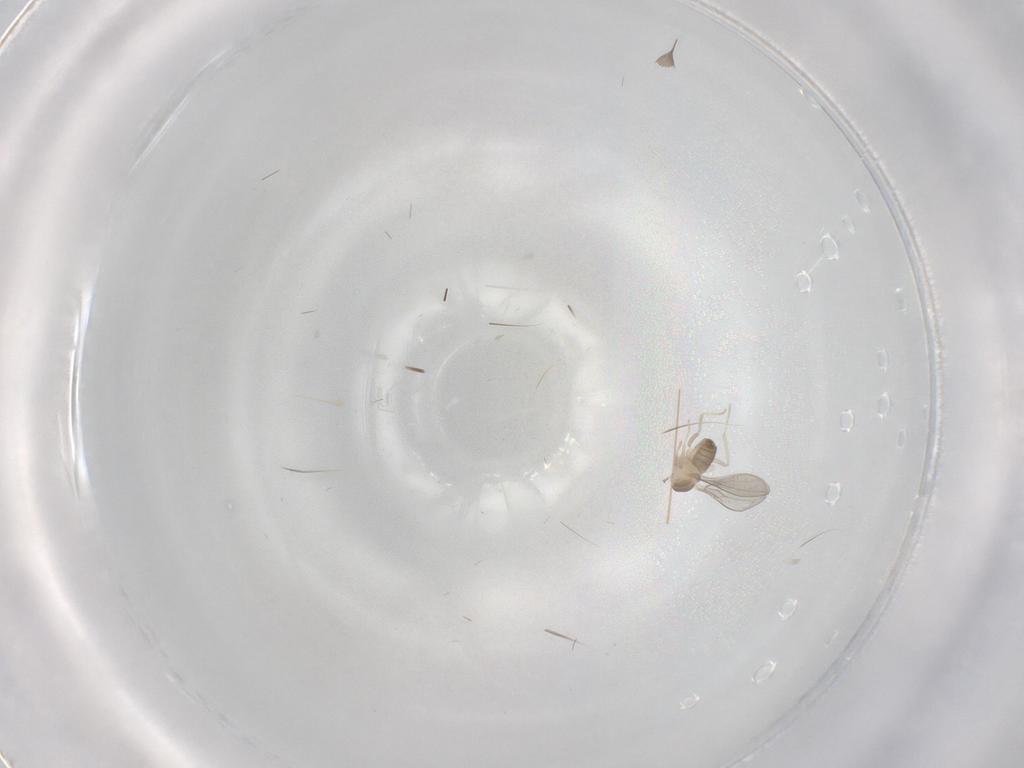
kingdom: Animalia
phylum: Arthropoda
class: Insecta
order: Diptera
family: Cecidomyiidae
